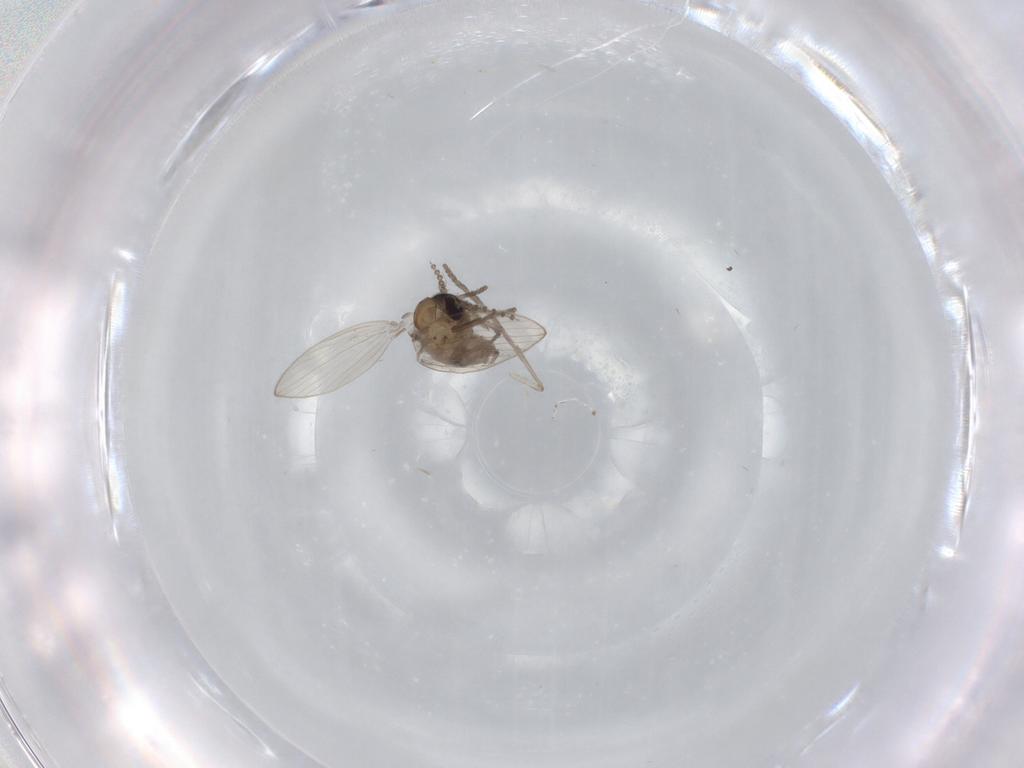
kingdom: Animalia
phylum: Arthropoda
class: Insecta
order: Diptera
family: Psychodidae
